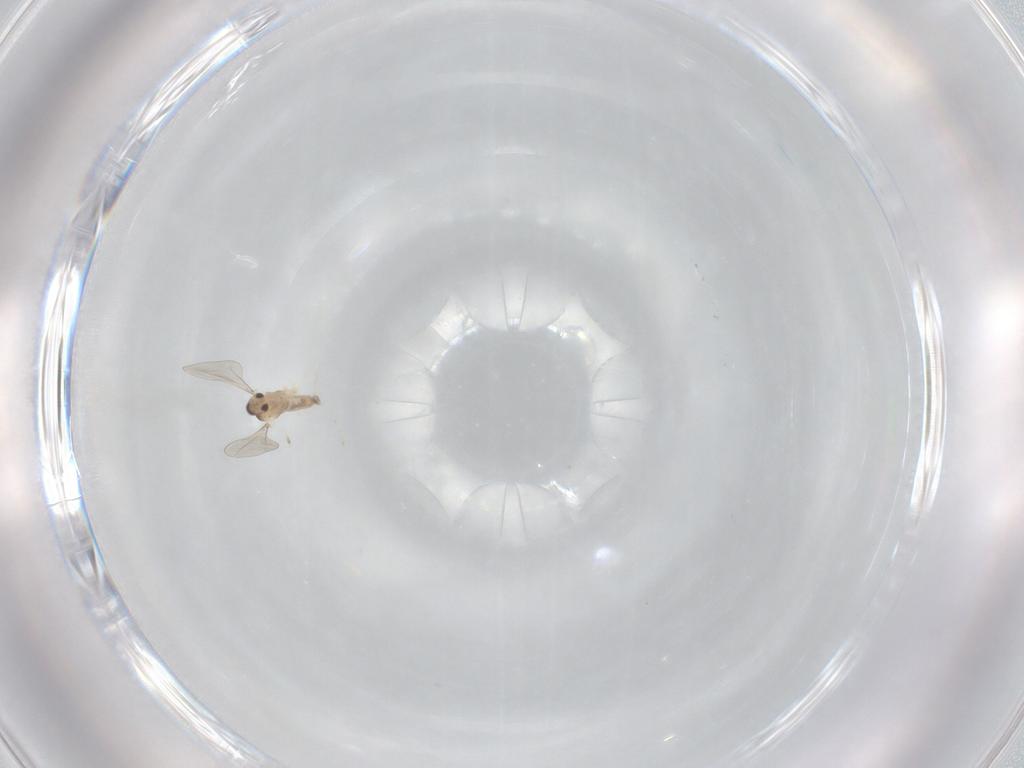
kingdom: Animalia
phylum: Arthropoda
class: Insecta
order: Diptera
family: Cecidomyiidae
